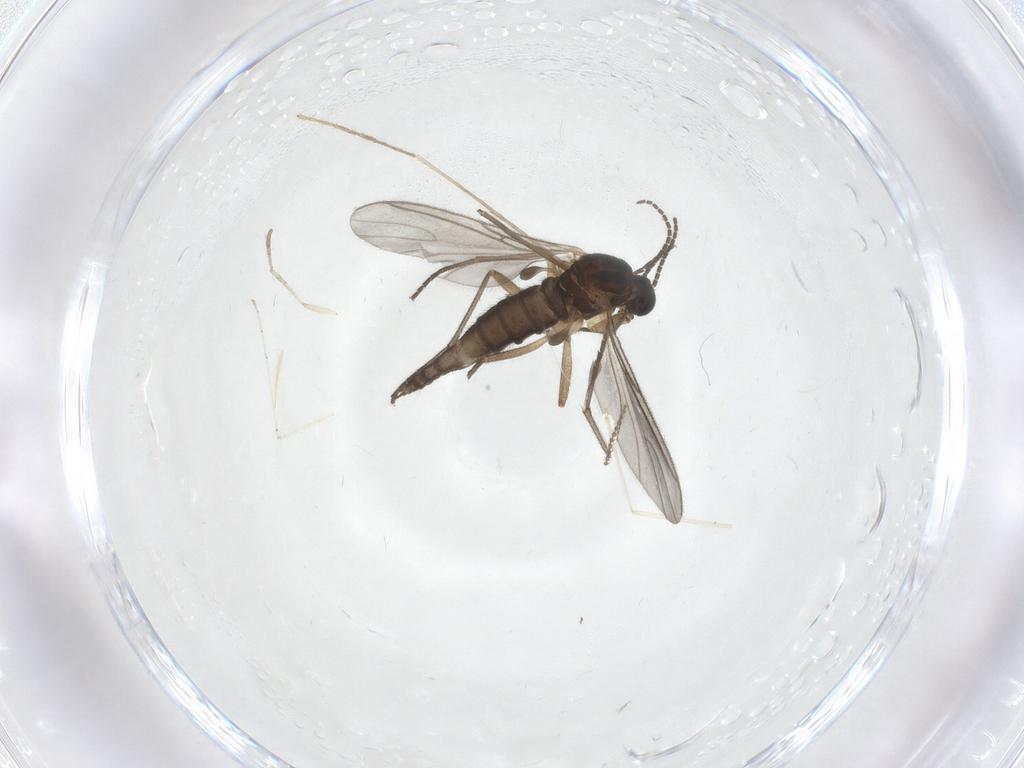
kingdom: Animalia
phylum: Arthropoda
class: Insecta
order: Diptera
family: Sciaridae
